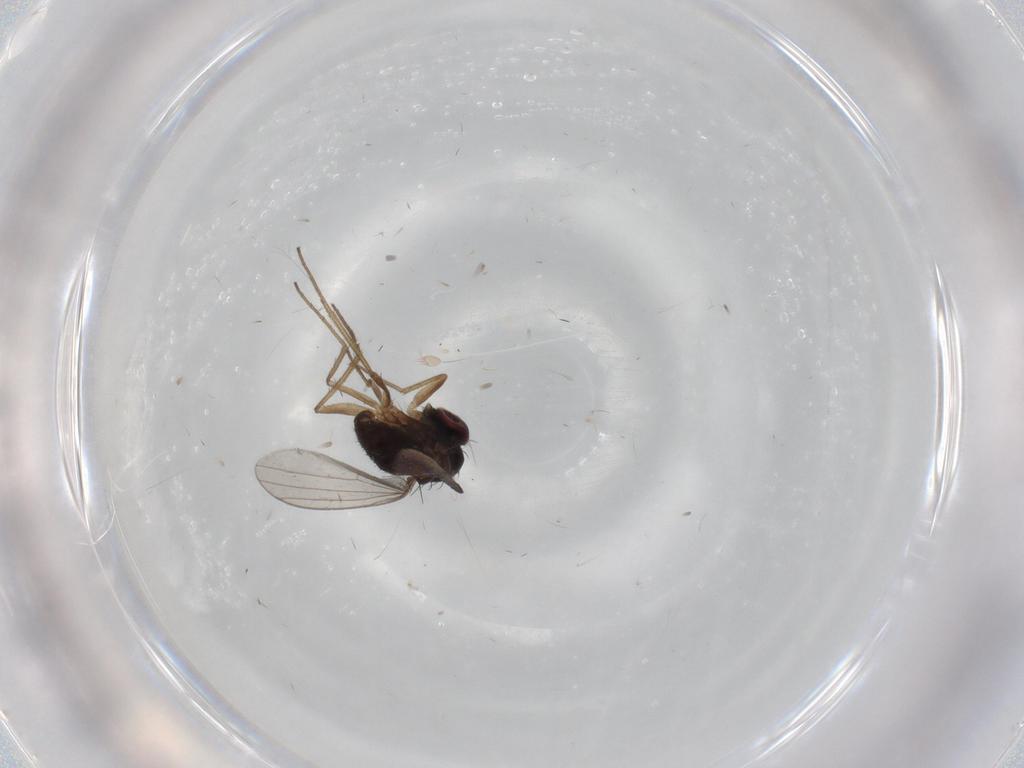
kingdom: Animalia
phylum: Arthropoda
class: Insecta
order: Diptera
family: Dolichopodidae
